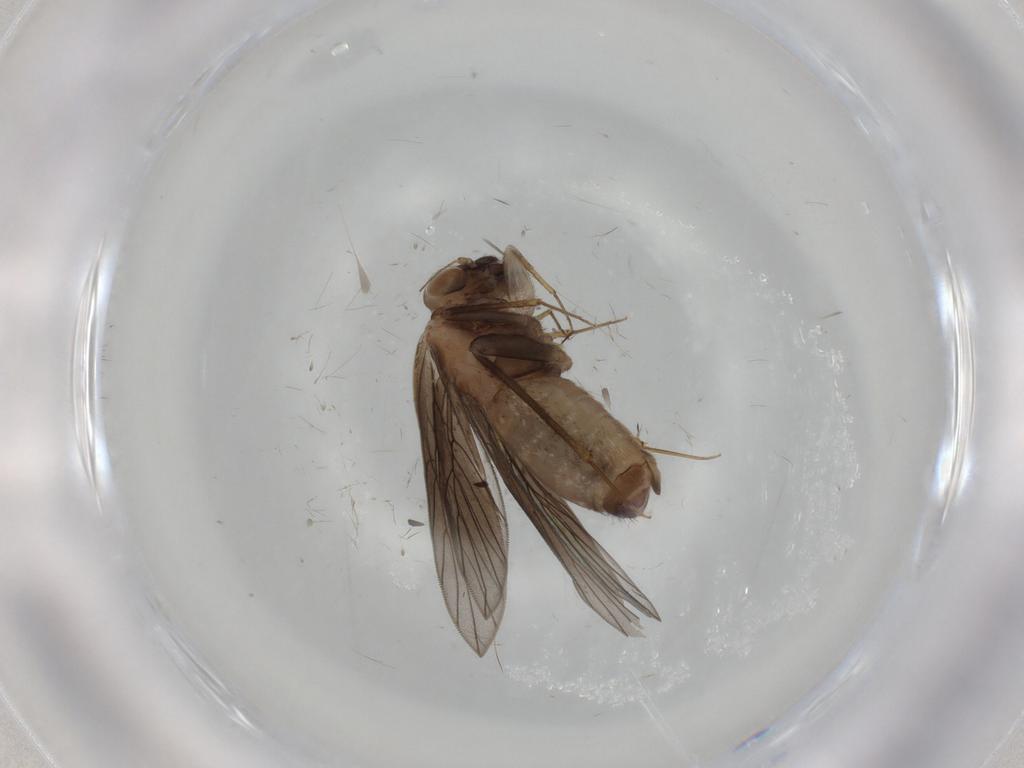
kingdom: Animalia
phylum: Arthropoda
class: Insecta
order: Psocodea
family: Lepidopsocidae
